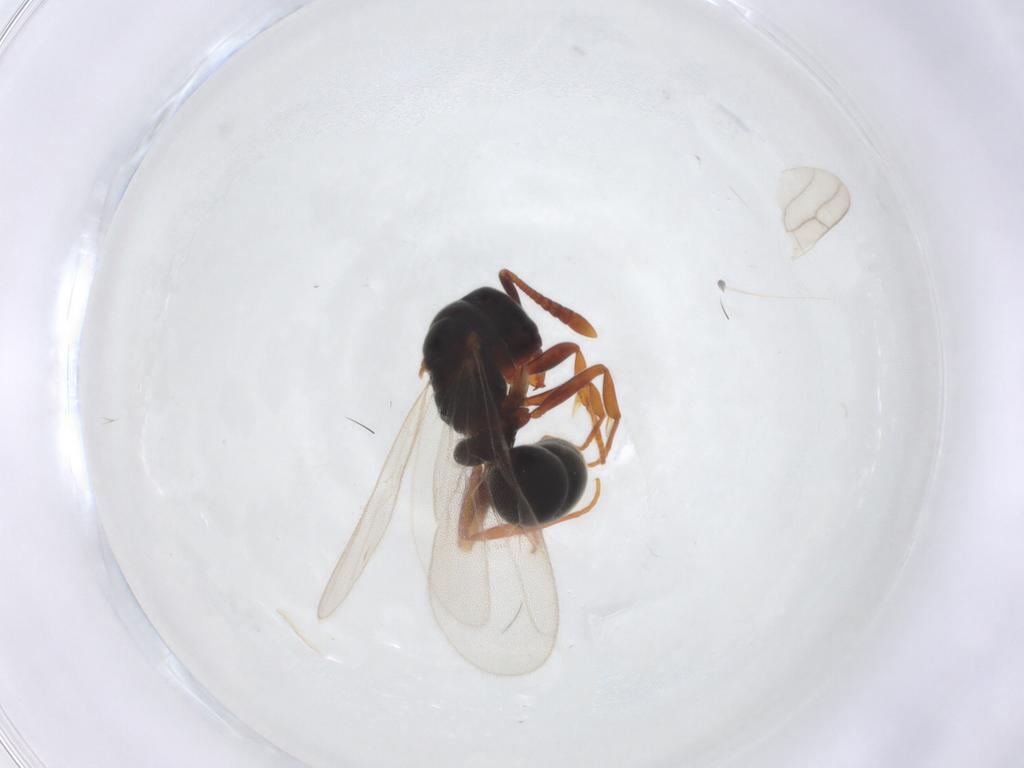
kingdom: Animalia
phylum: Arthropoda
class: Insecta
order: Hymenoptera
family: Formicidae
